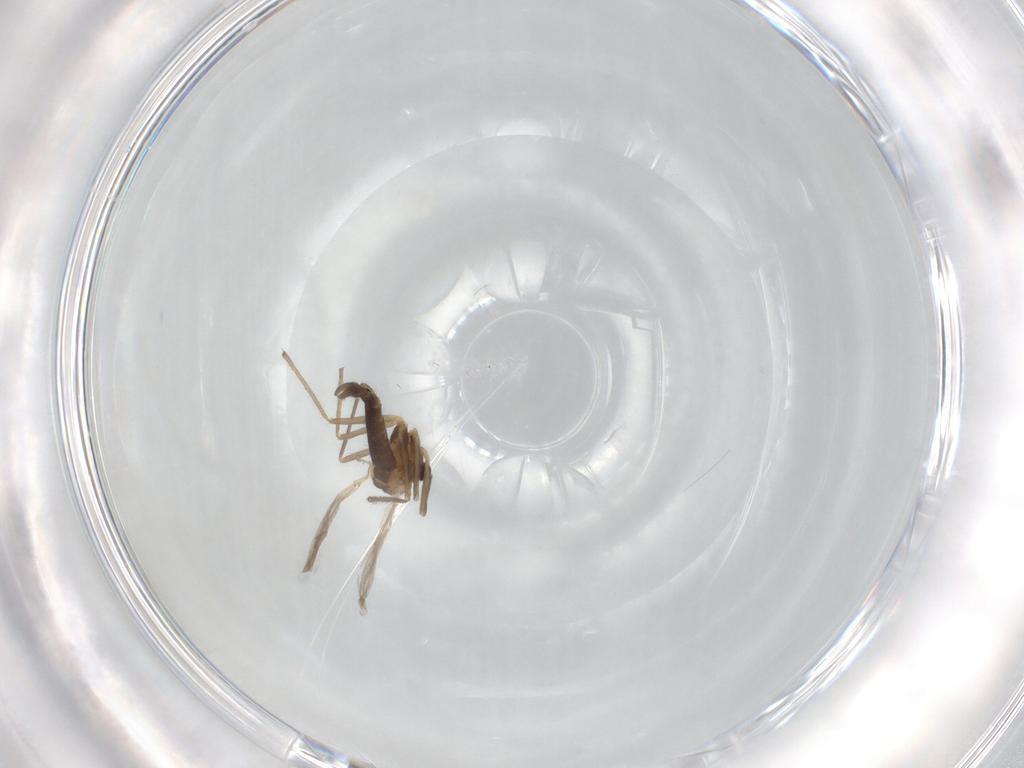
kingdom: Animalia
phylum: Arthropoda
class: Insecta
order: Diptera
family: Chironomidae
